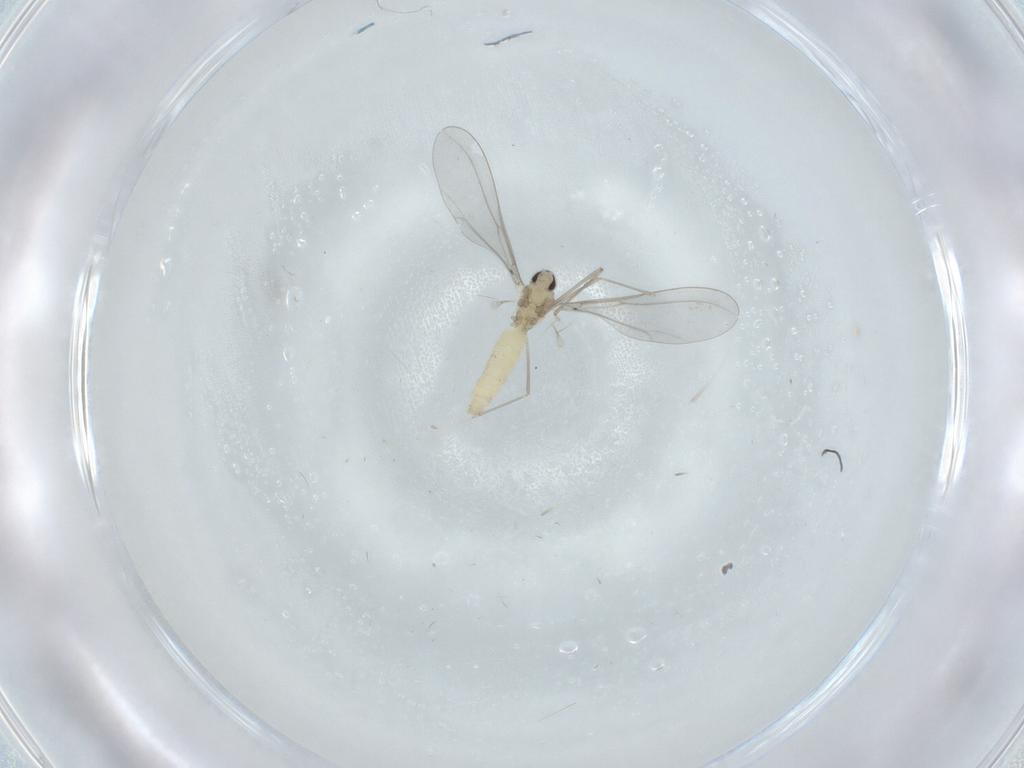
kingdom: Animalia
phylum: Arthropoda
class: Insecta
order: Diptera
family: Cecidomyiidae
